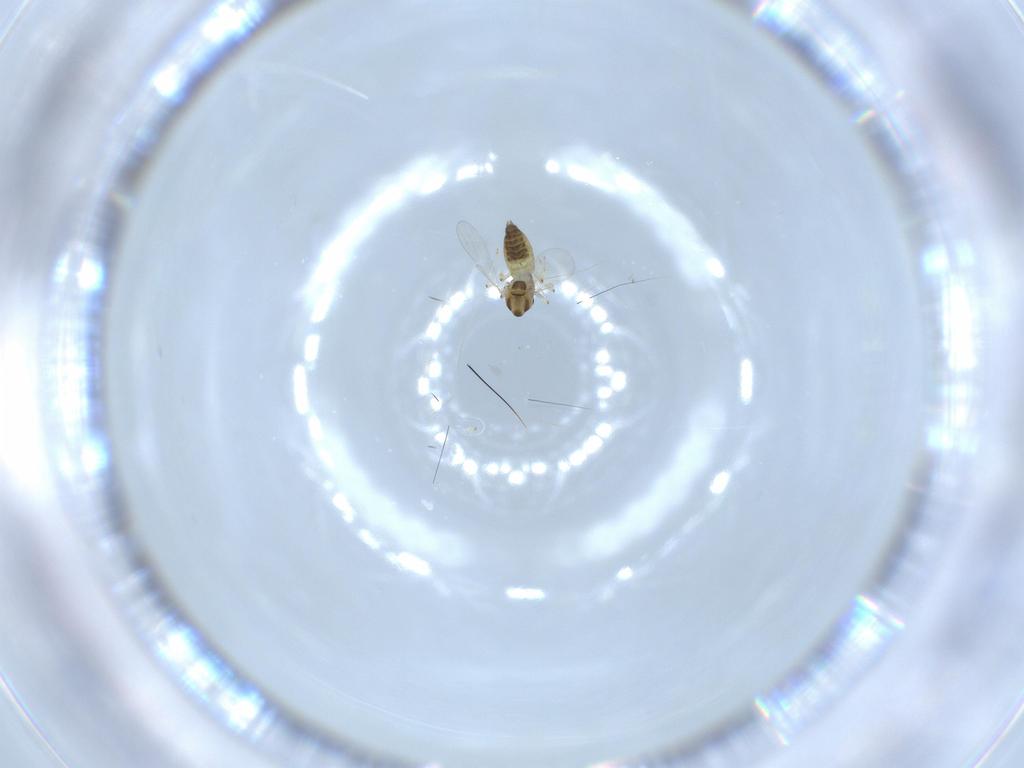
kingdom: Animalia
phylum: Arthropoda
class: Insecta
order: Diptera
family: Chironomidae
